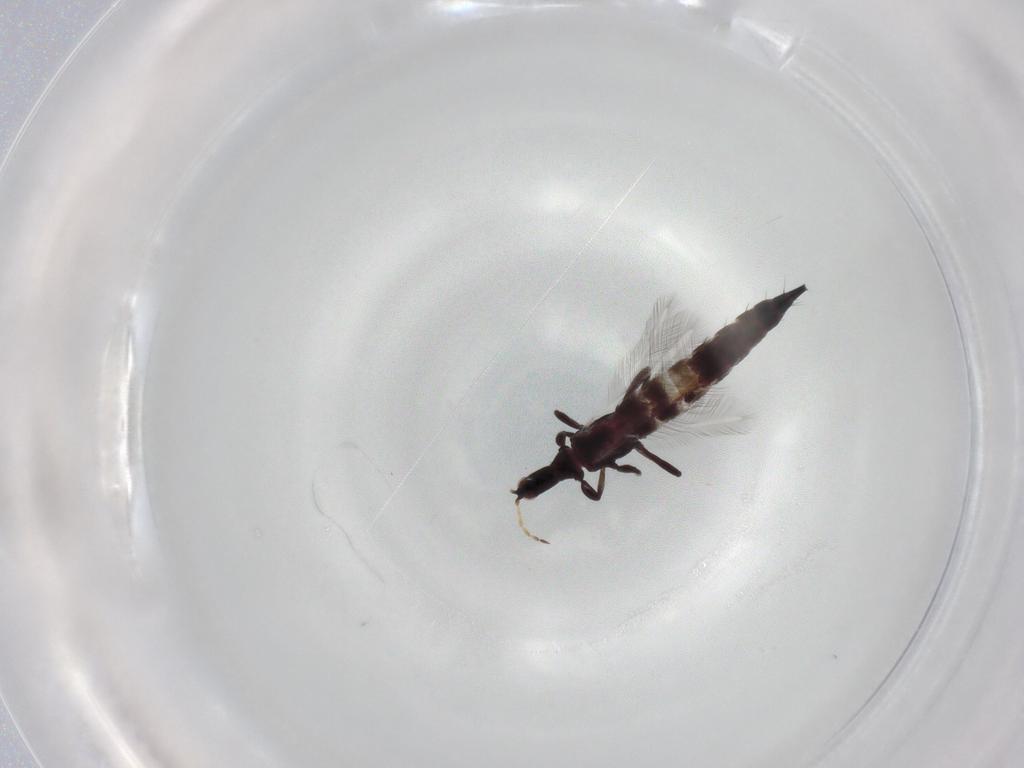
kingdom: Animalia
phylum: Arthropoda
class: Insecta
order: Thysanoptera
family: Phlaeothripidae
